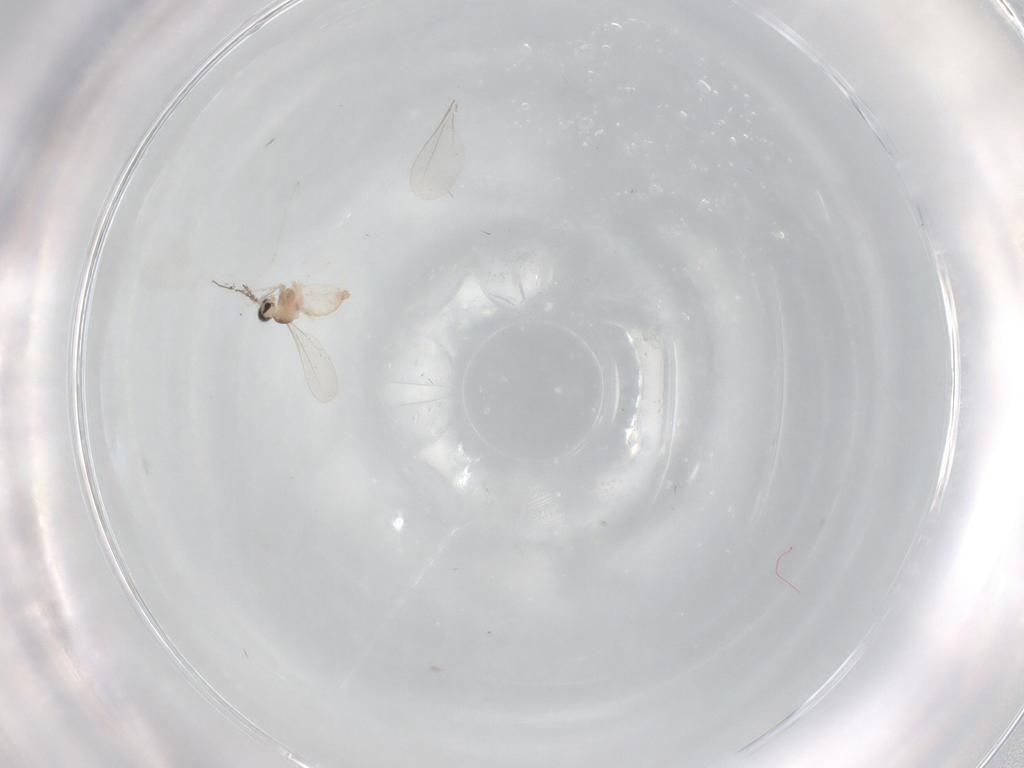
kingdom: Animalia
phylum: Arthropoda
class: Insecta
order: Diptera
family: Cecidomyiidae
